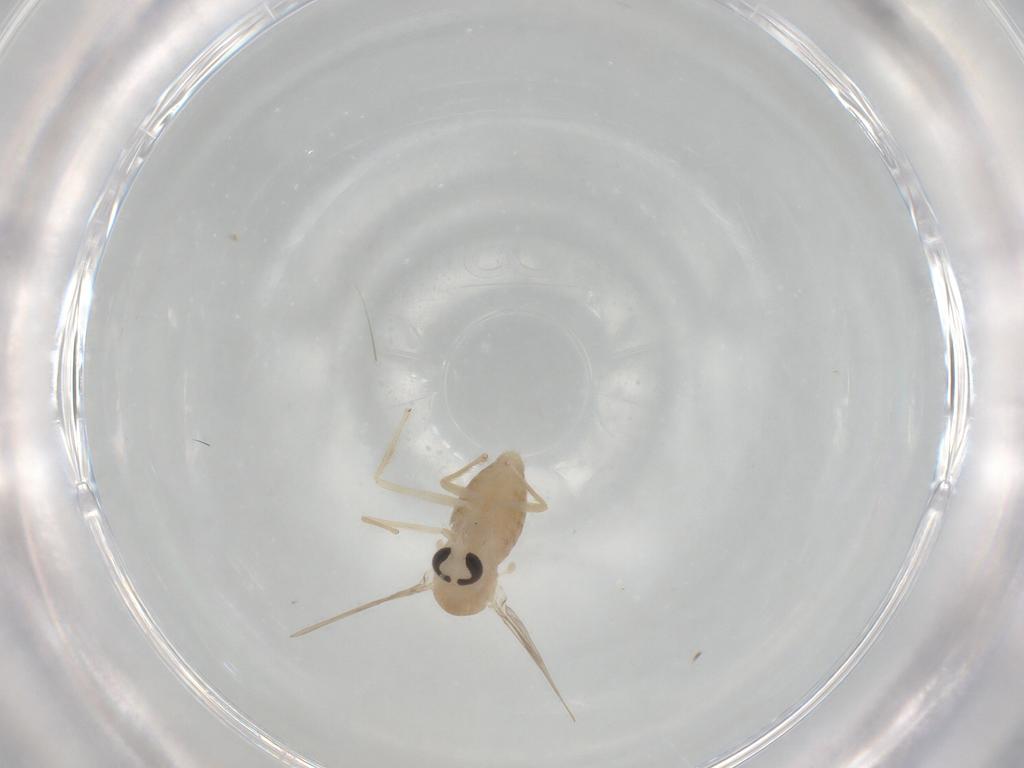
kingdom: Animalia
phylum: Arthropoda
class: Insecta
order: Diptera
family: Chironomidae
